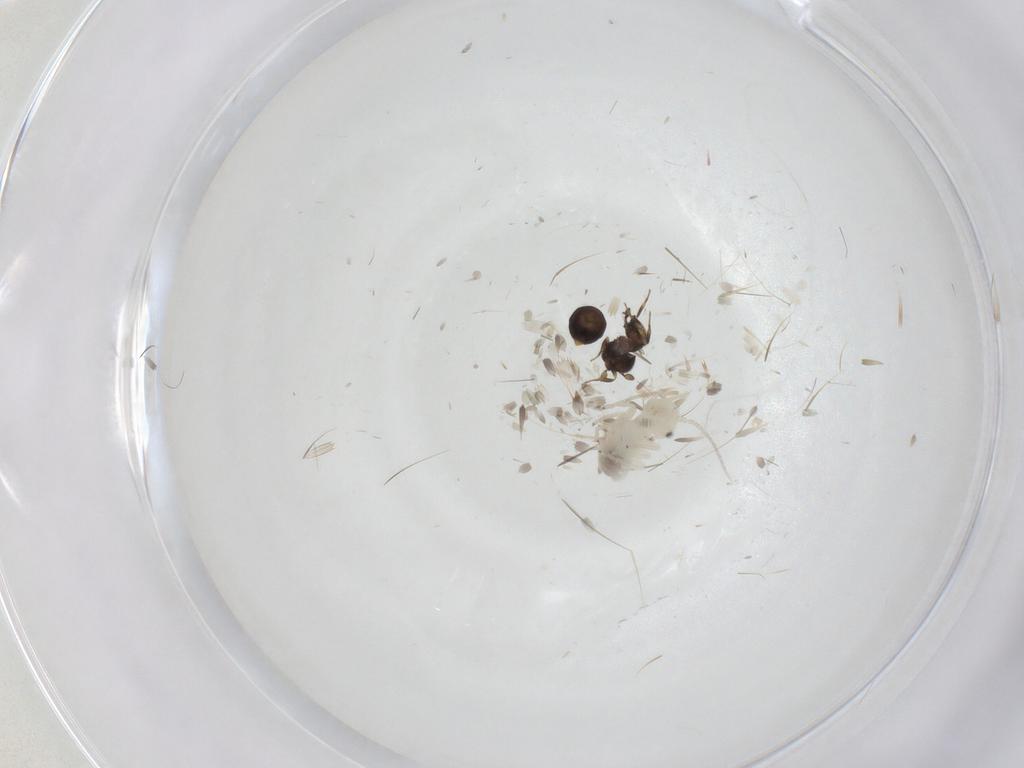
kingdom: Animalia
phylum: Arthropoda
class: Insecta
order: Hymenoptera
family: Scelionidae
